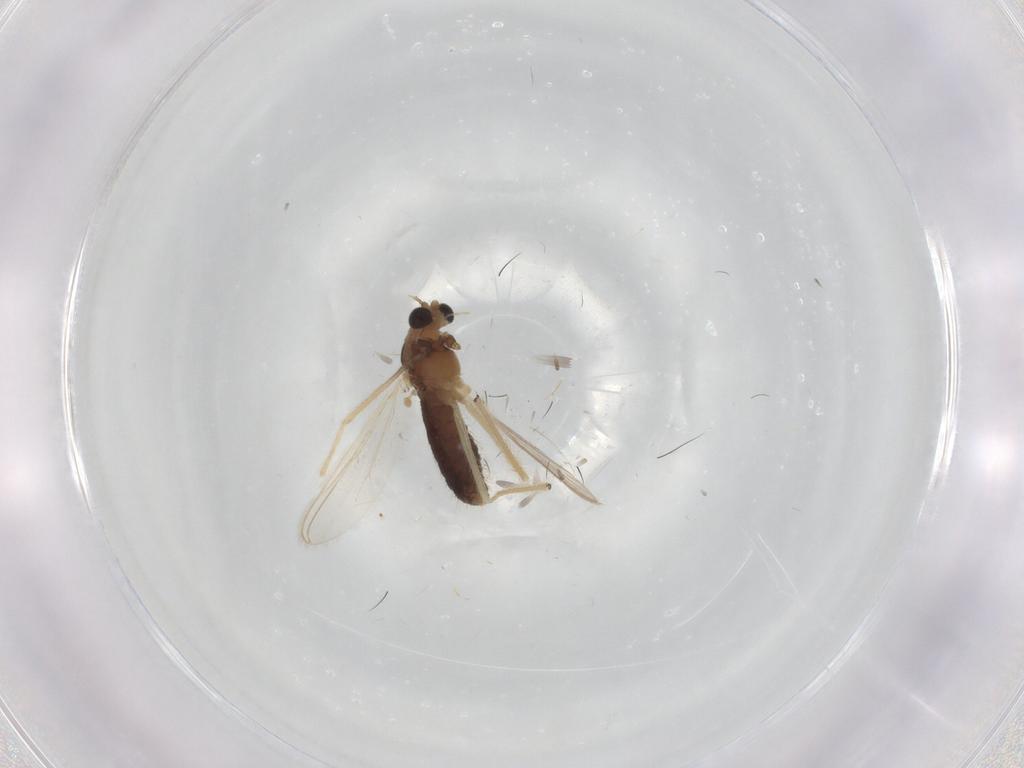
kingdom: Animalia
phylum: Arthropoda
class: Insecta
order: Diptera
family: Chironomidae
